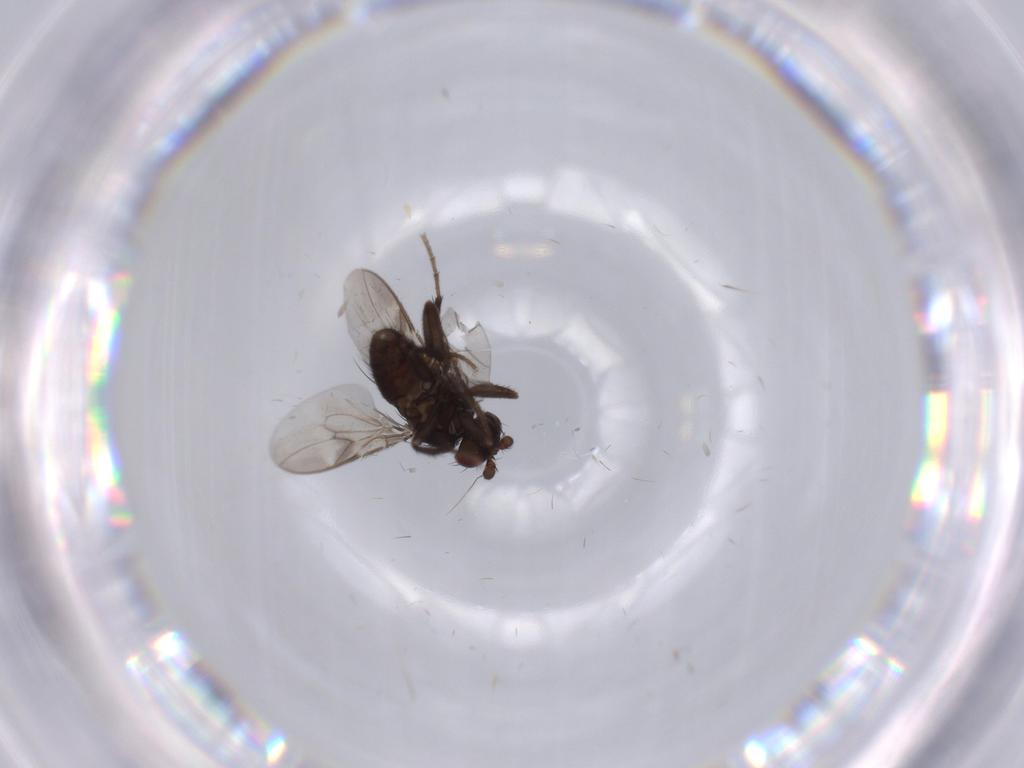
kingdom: Animalia
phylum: Arthropoda
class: Insecta
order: Diptera
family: Sphaeroceridae
